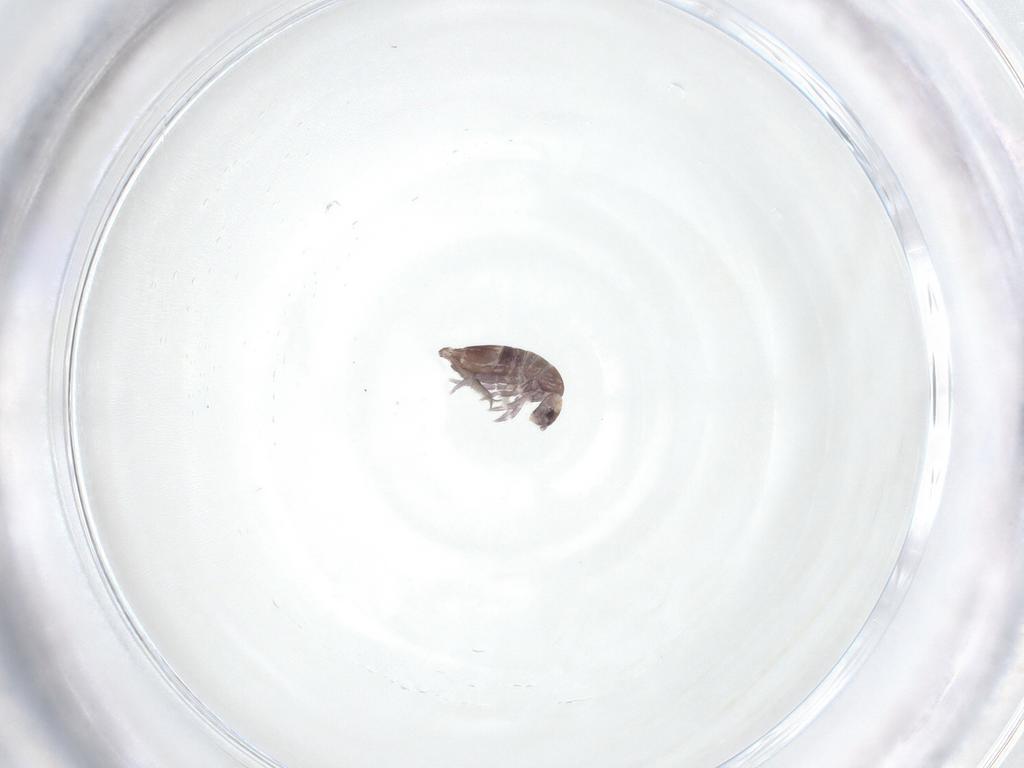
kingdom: Animalia
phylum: Arthropoda
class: Collembola
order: Entomobryomorpha
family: Entomobryidae
